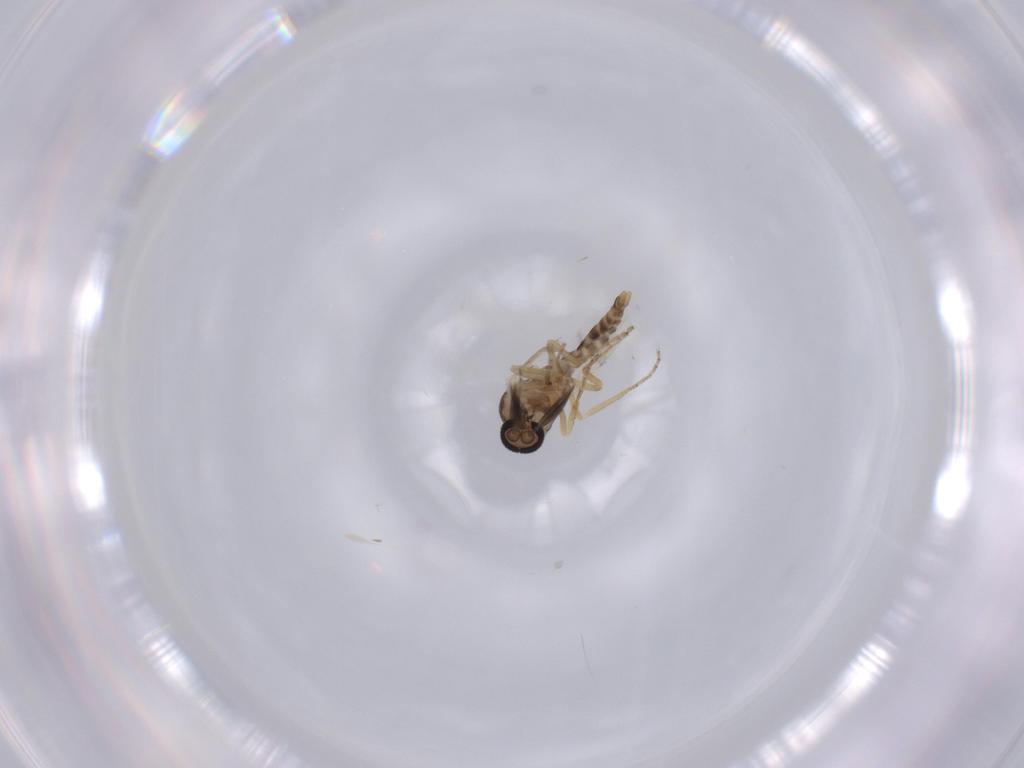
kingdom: Animalia
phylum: Arthropoda
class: Insecta
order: Diptera
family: Ceratopogonidae
